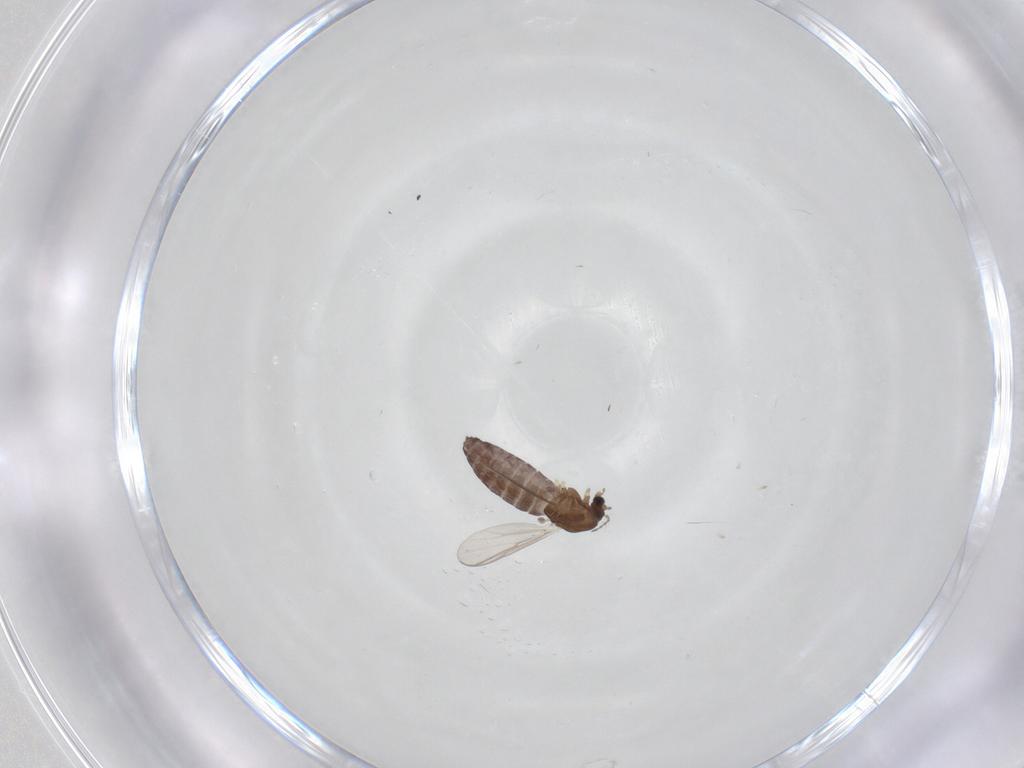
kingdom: Animalia
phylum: Arthropoda
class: Insecta
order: Diptera
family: Chironomidae
